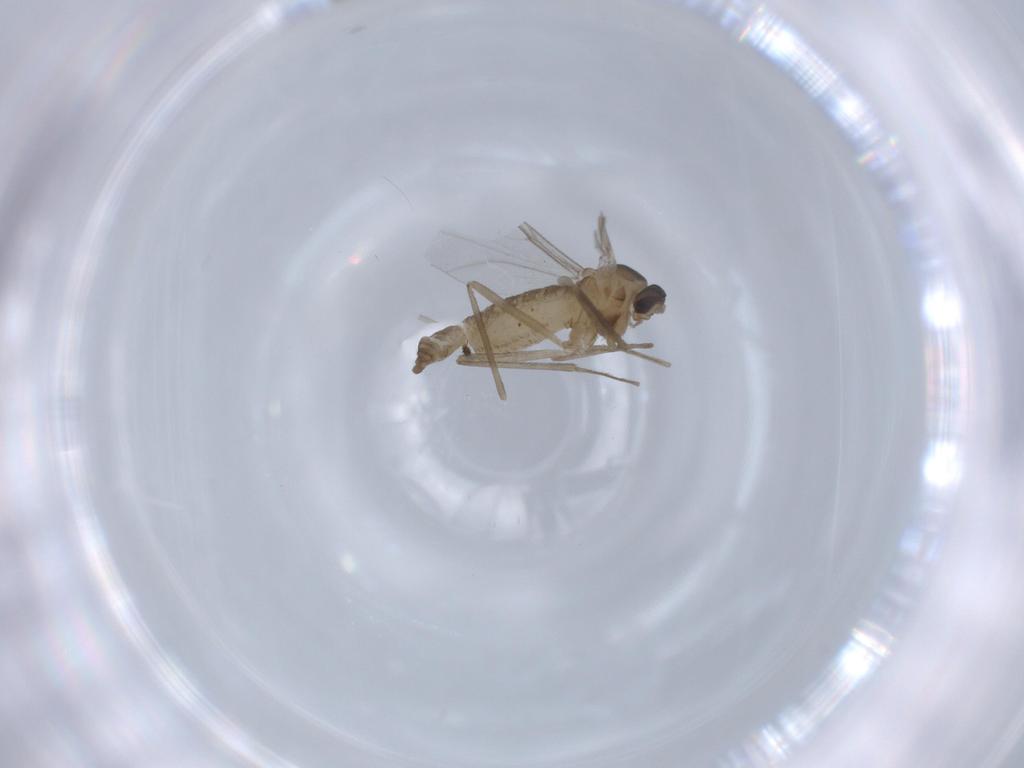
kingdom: Animalia
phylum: Arthropoda
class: Insecta
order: Diptera
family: Cecidomyiidae
